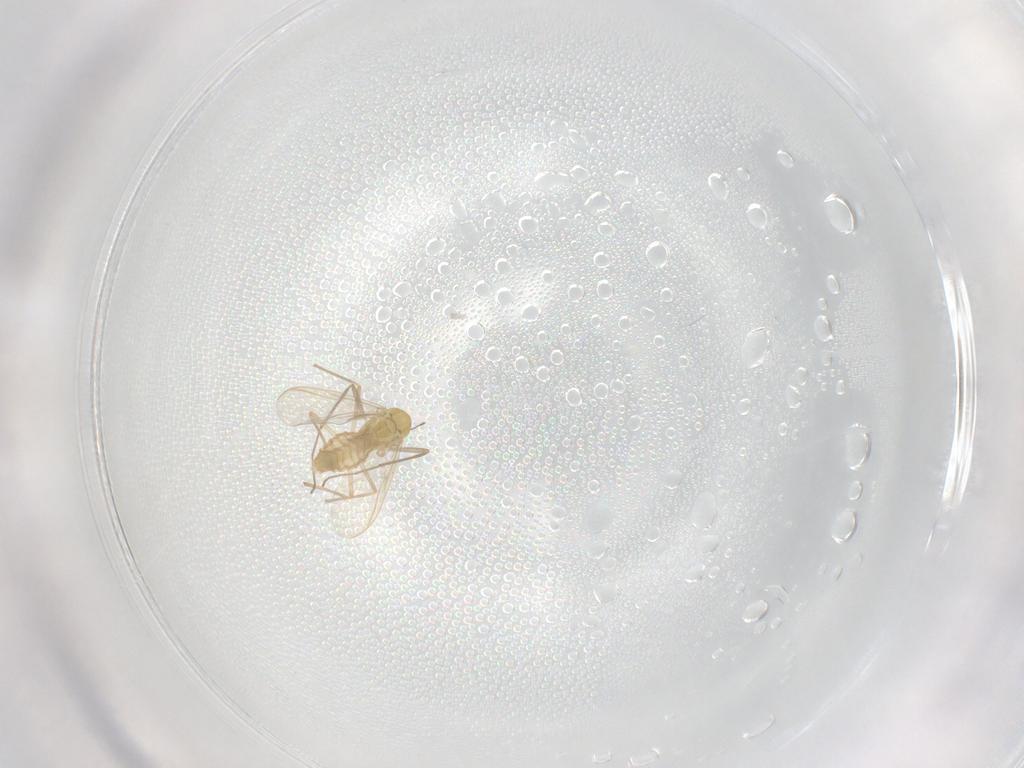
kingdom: Animalia
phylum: Arthropoda
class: Insecta
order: Diptera
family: Chironomidae
